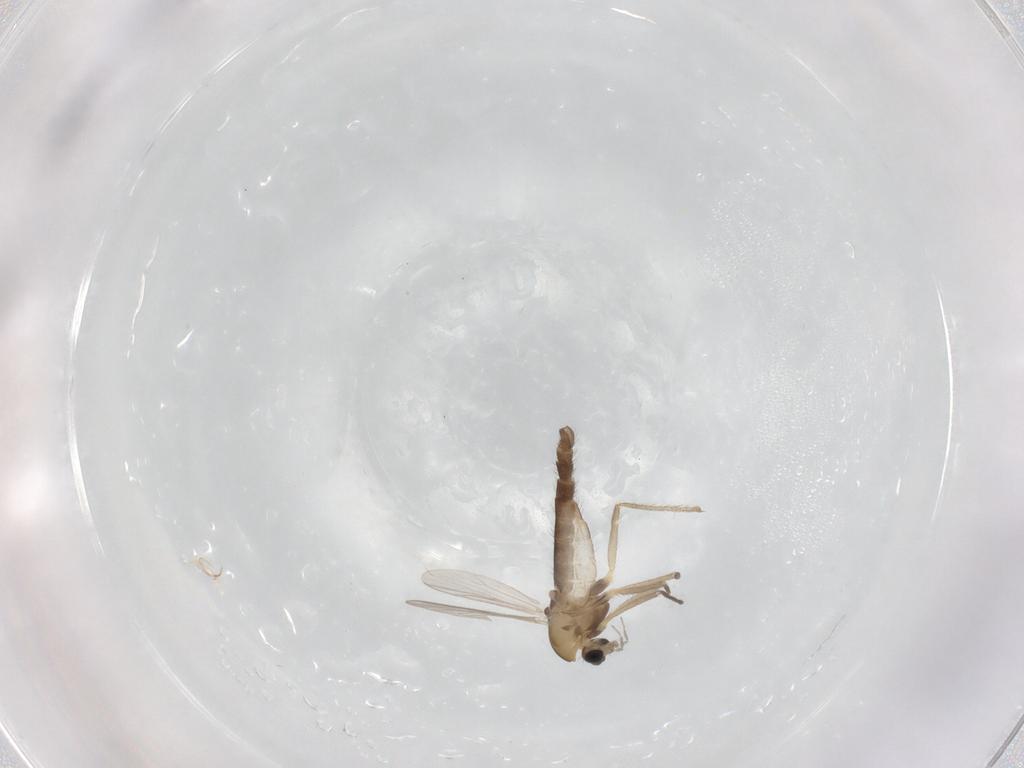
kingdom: Animalia
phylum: Arthropoda
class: Insecta
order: Diptera
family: Chironomidae
